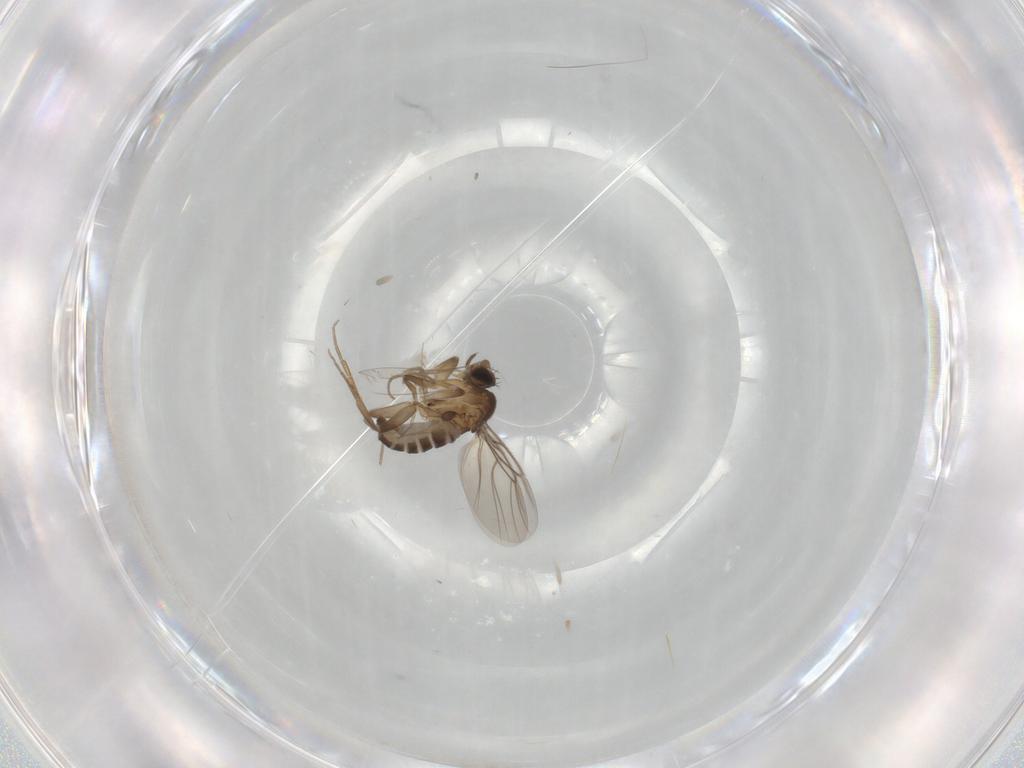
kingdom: Animalia
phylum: Arthropoda
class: Insecta
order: Diptera
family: Phoridae
